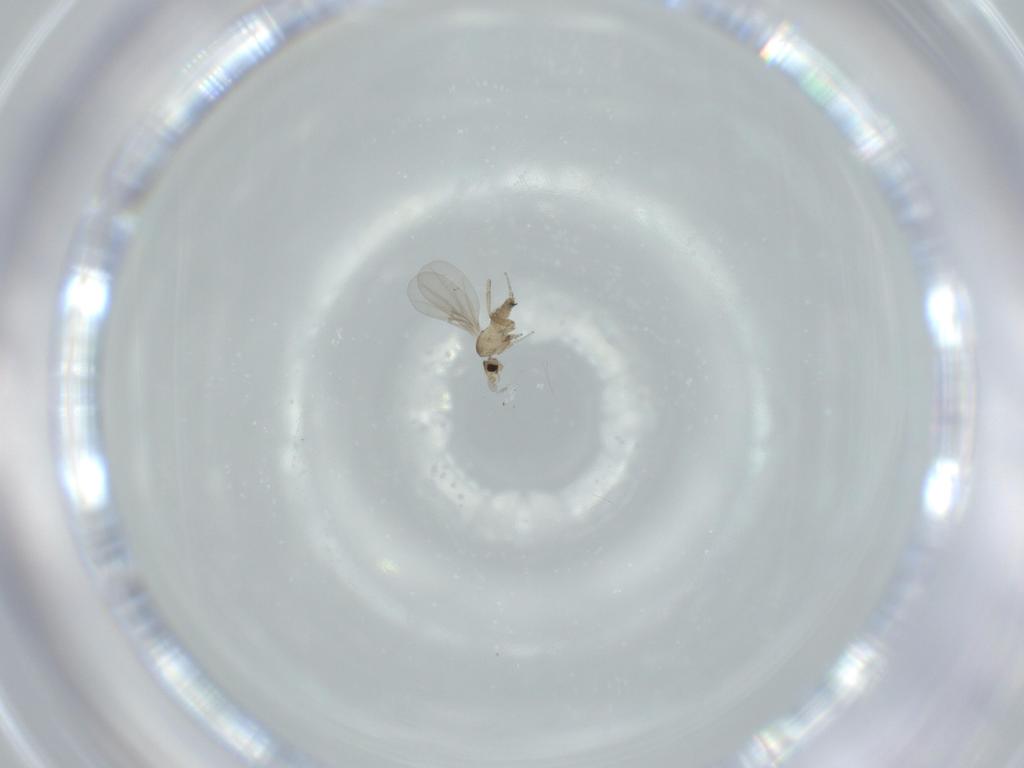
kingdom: Animalia
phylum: Arthropoda
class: Insecta
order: Diptera
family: Phoridae
